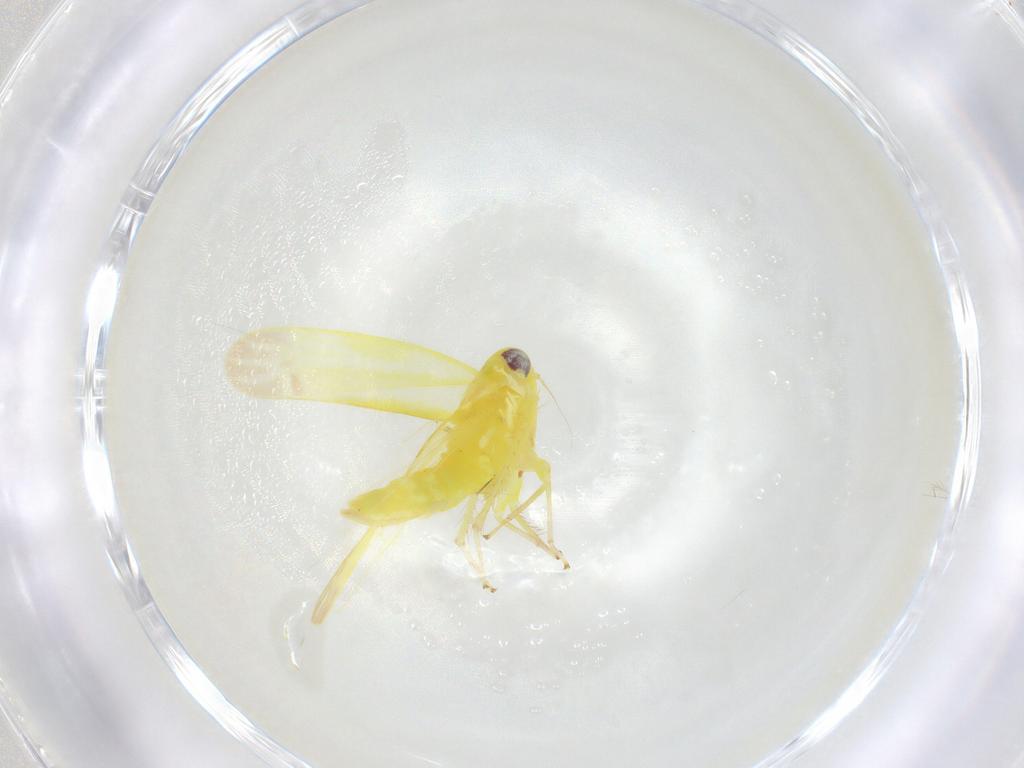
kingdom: Animalia
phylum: Arthropoda
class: Insecta
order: Hemiptera
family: Cicadellidae
